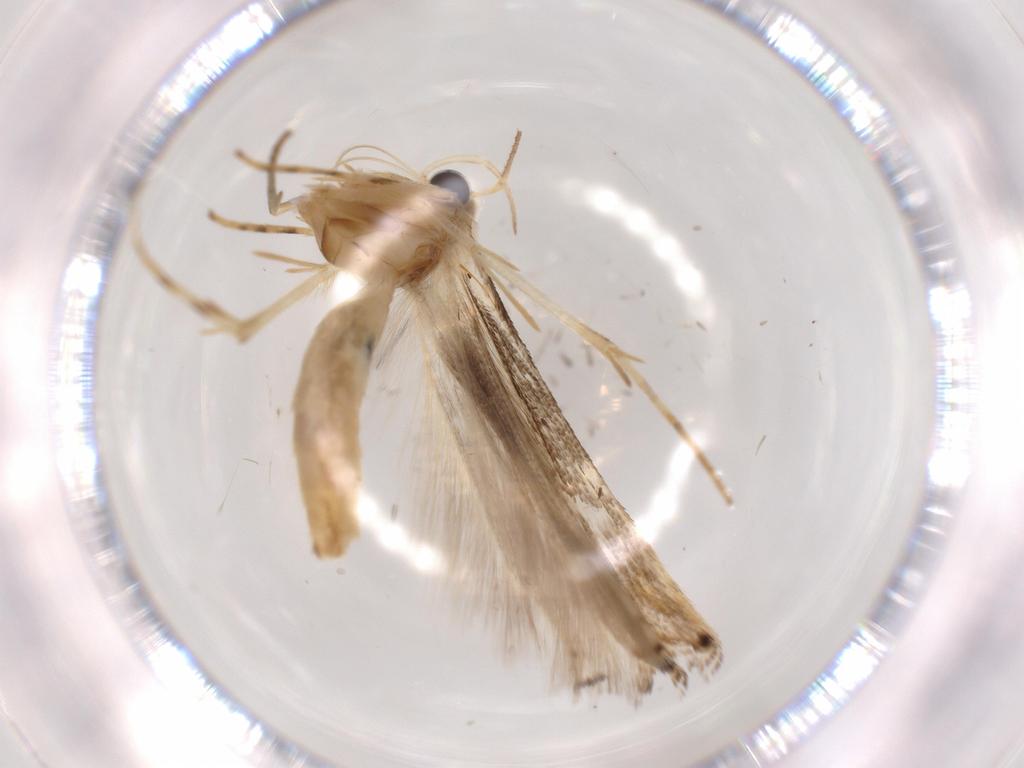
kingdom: Animalia
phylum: Arthropoda
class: Insecta
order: Lepidoptera
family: Gelechiidae
